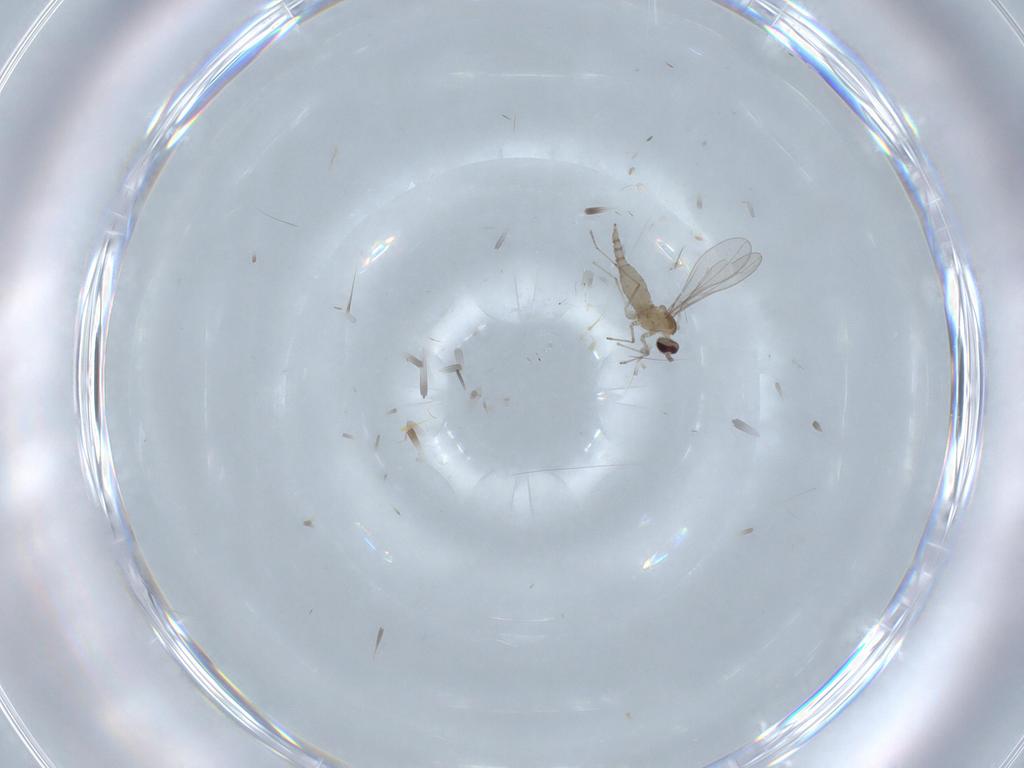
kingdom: Animalia
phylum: Arthropoda
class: Insecta
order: Diptera
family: Cecidomyiidae
